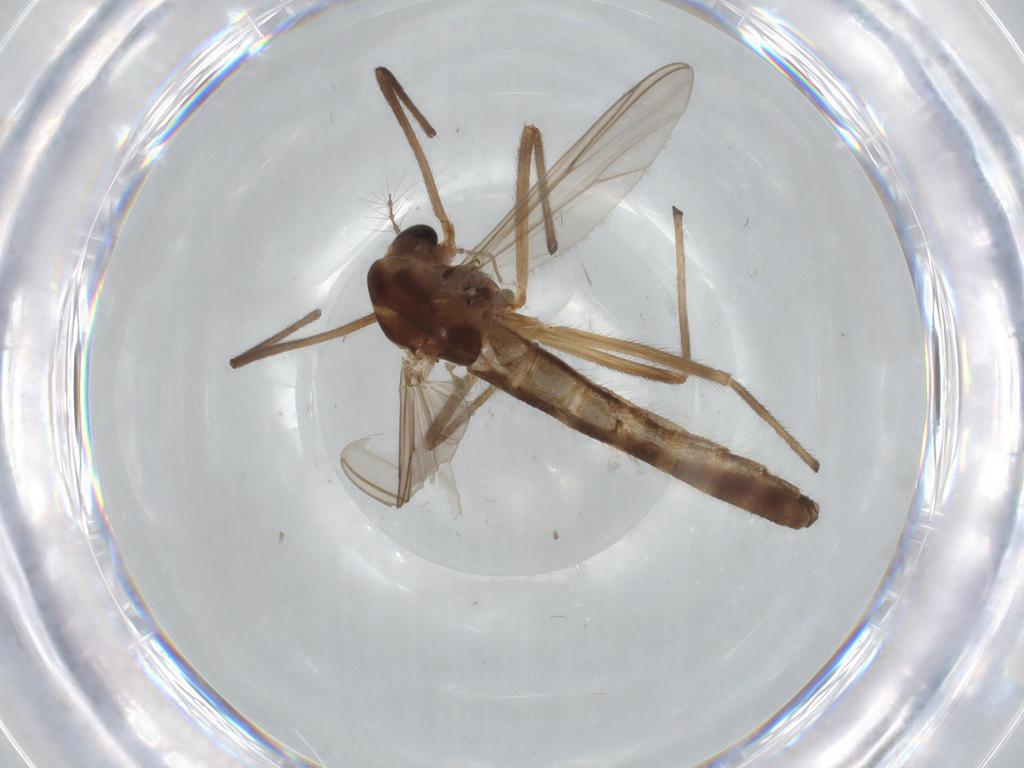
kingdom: Animalia
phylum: Arthropoda
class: Insecta
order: Diptera
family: Chironomidae
